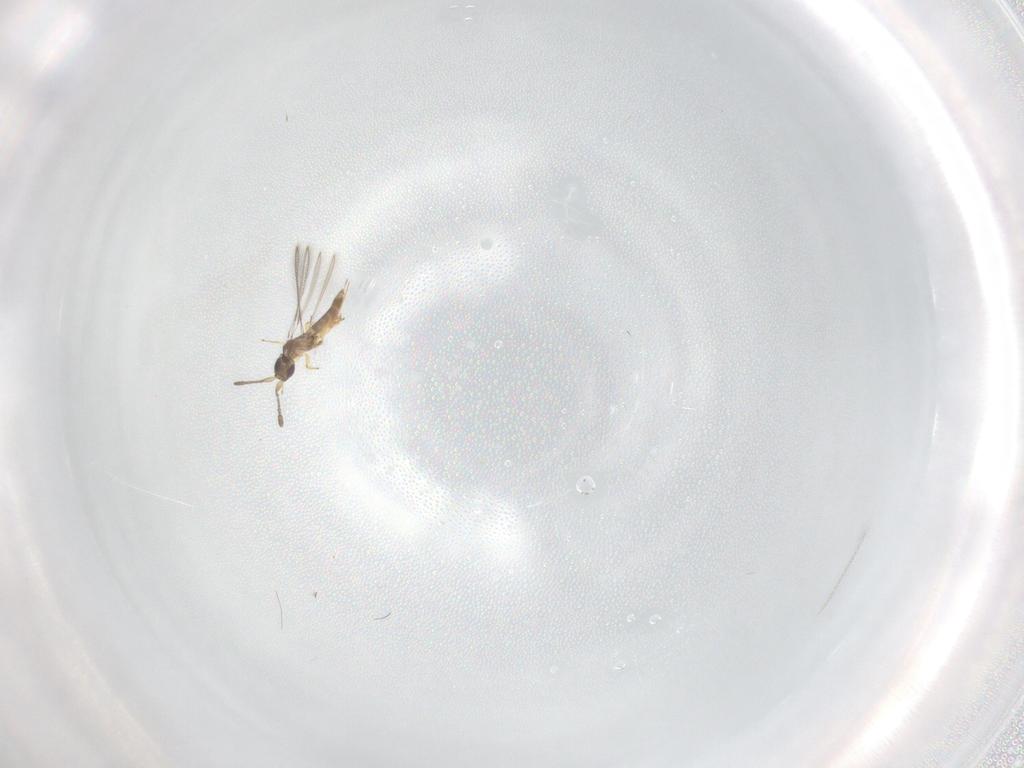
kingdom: Animalia
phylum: Arthropoda
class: Insecta
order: Hymenoptera
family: Mymaridae
